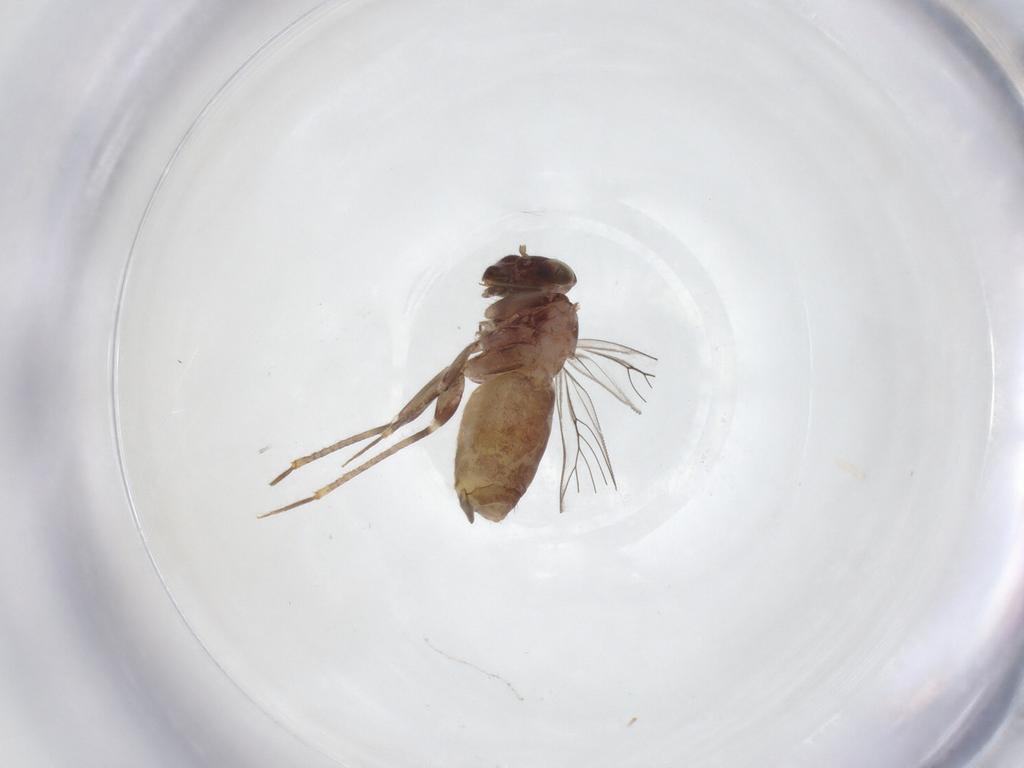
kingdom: Animalia
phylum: Arthropoda
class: Insecta
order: Psocodea
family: Lepidopsocidae
